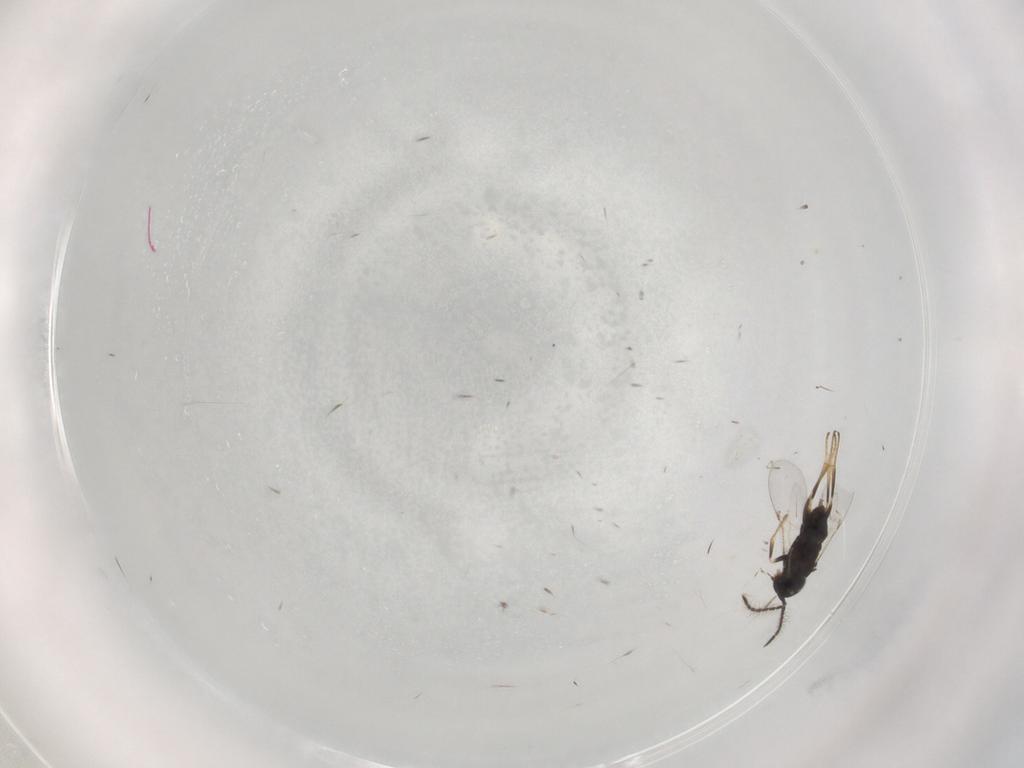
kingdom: Animalia
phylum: Arthropoda
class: Insecta
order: Hymenoptera
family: Encyrtidae
